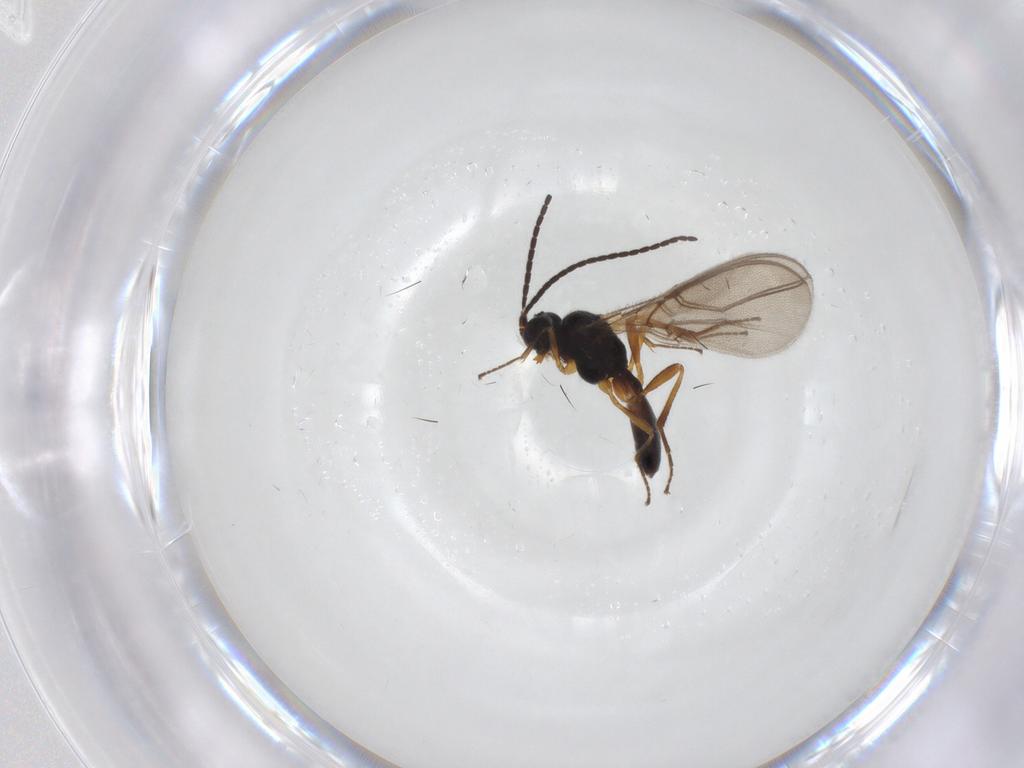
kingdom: Animalia
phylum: Arthropoda
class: Insecta
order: Hymenoptera
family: Braconidae
